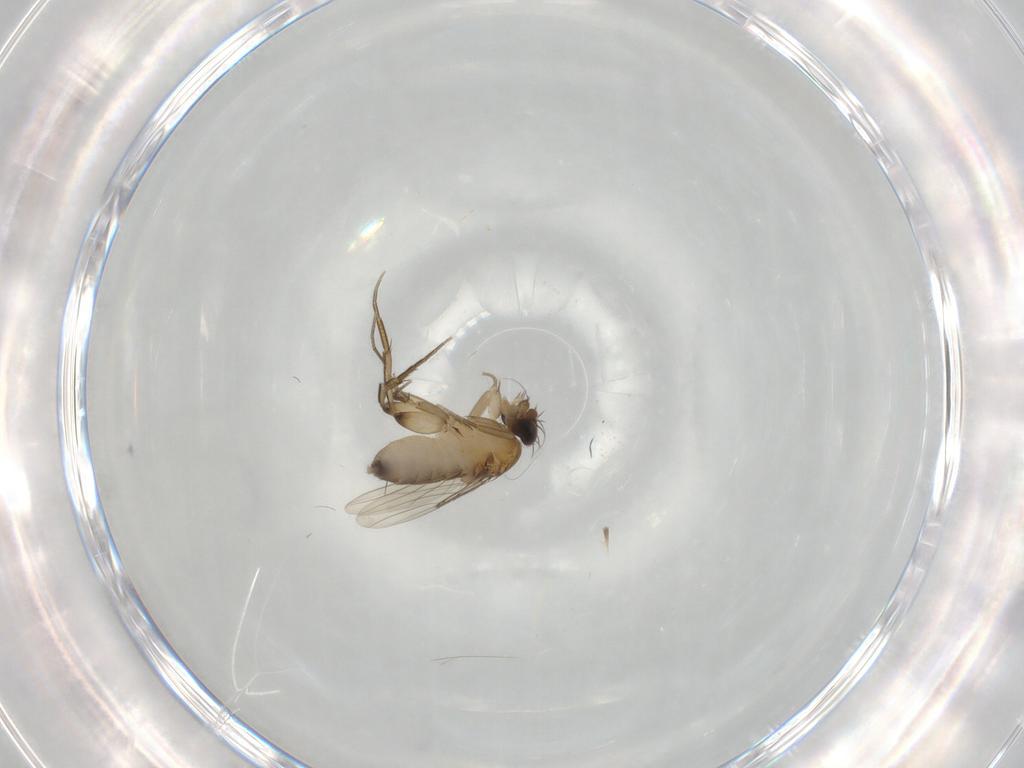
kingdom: Animalia
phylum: Arthropoda
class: Insecta
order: Diptera
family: Phoridae
